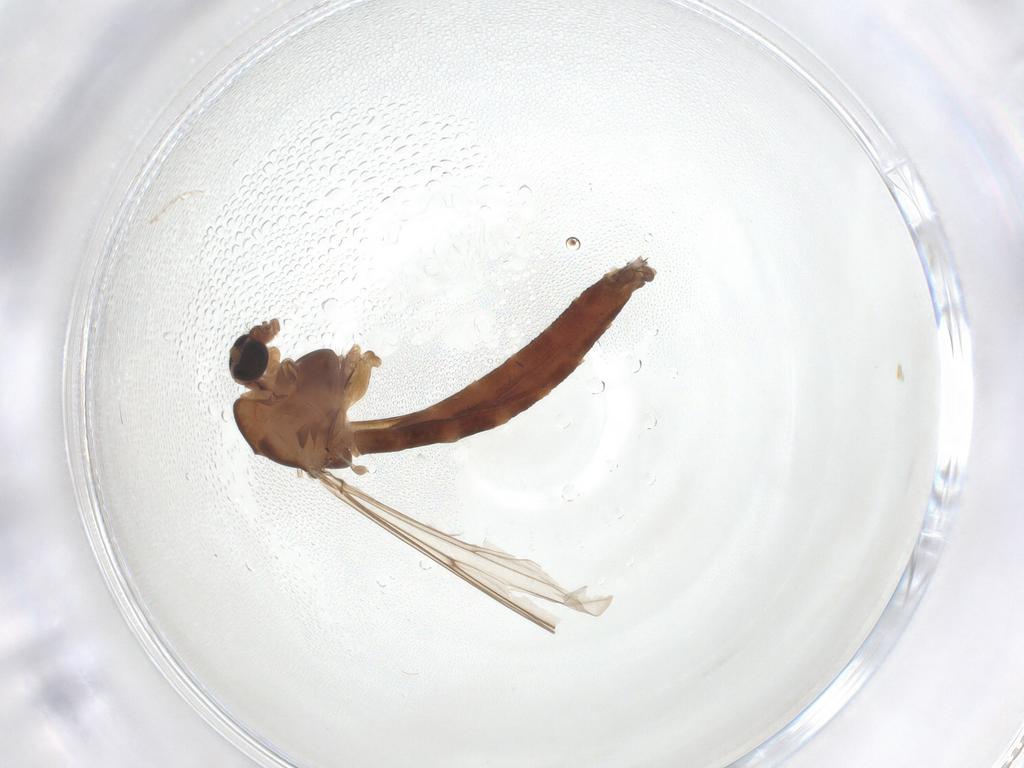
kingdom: Animalia
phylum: Arthropoda
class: Insecta
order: Diptera
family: Chironomidae
